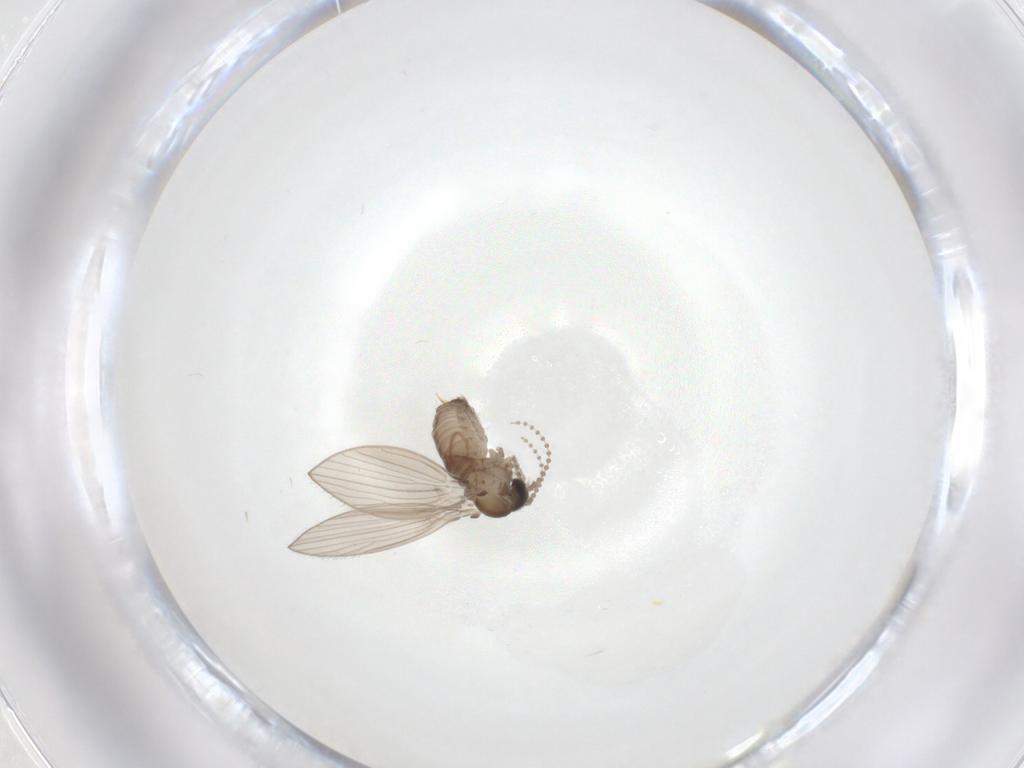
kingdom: Animalia
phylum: Arthropoda
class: Insecta
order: Diptera
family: Psychodidae
